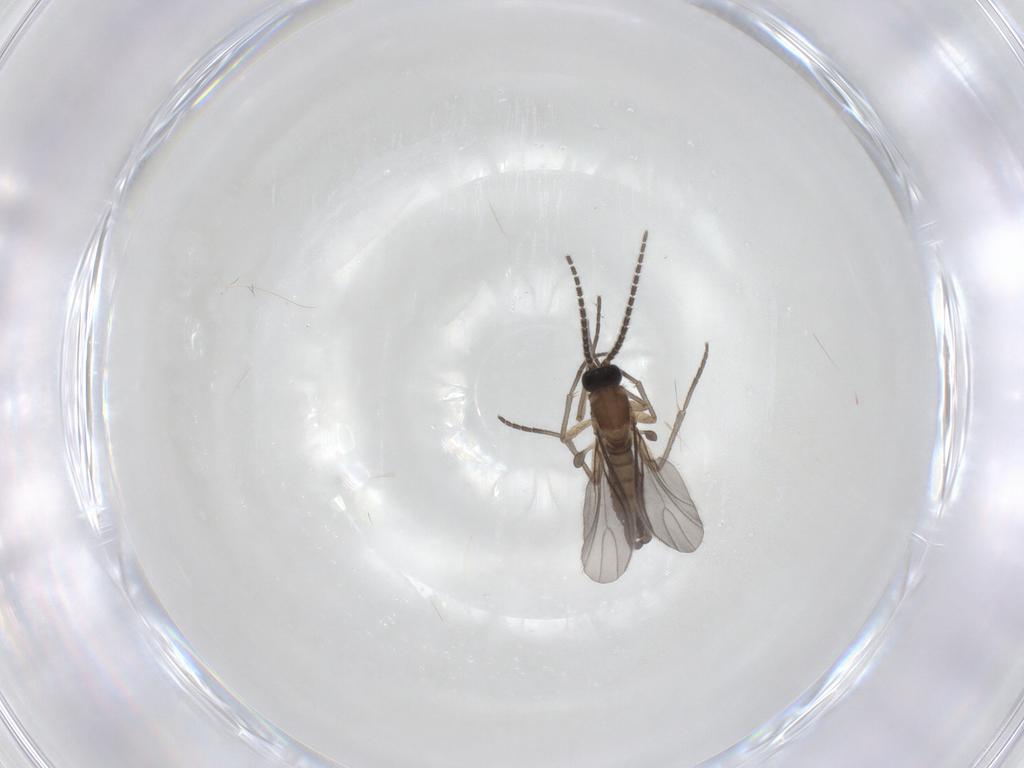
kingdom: Animalia
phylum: Arthropoda
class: Insecta
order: Diptera
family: Sciaridae
